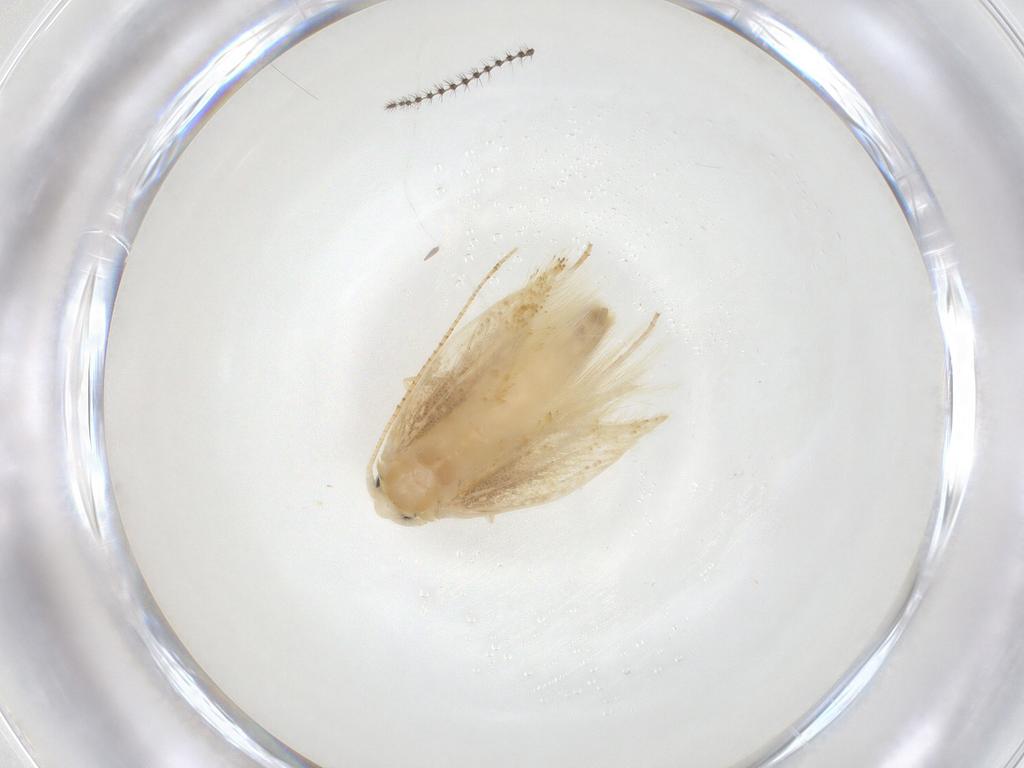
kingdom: Animalia
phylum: Arthropoda
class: Insecta
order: Lepidoptera
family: Bucculatricidae
